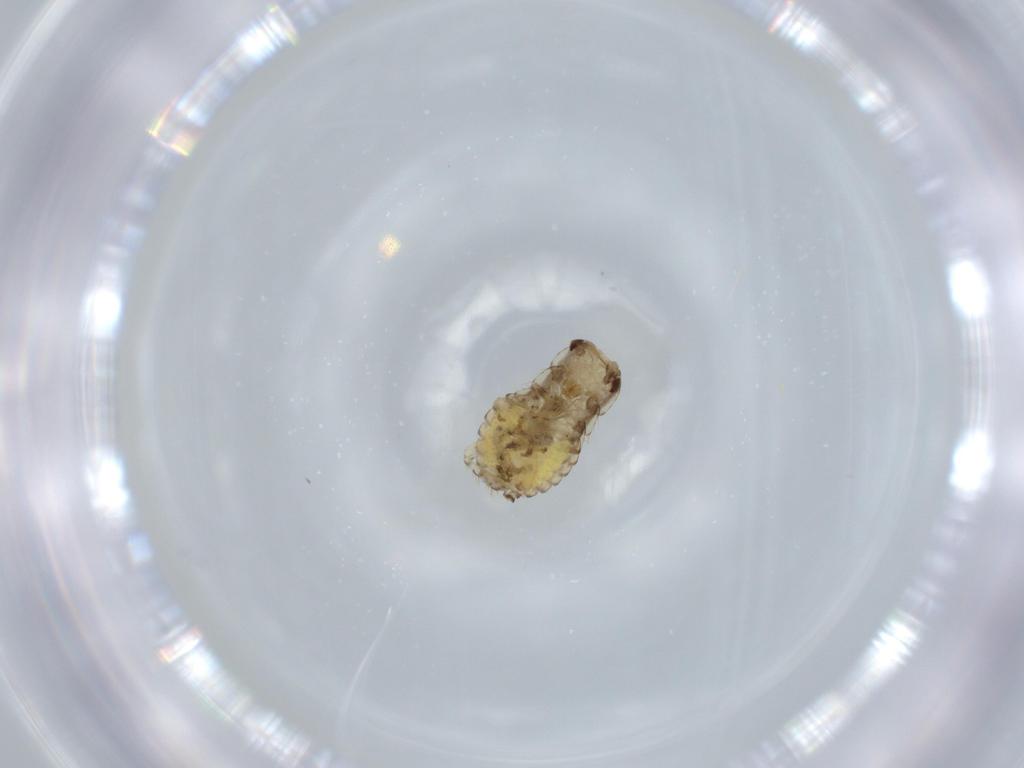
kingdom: Animalia
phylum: Arthropoda
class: Insecta
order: Blattodea
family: Ectobiidae
